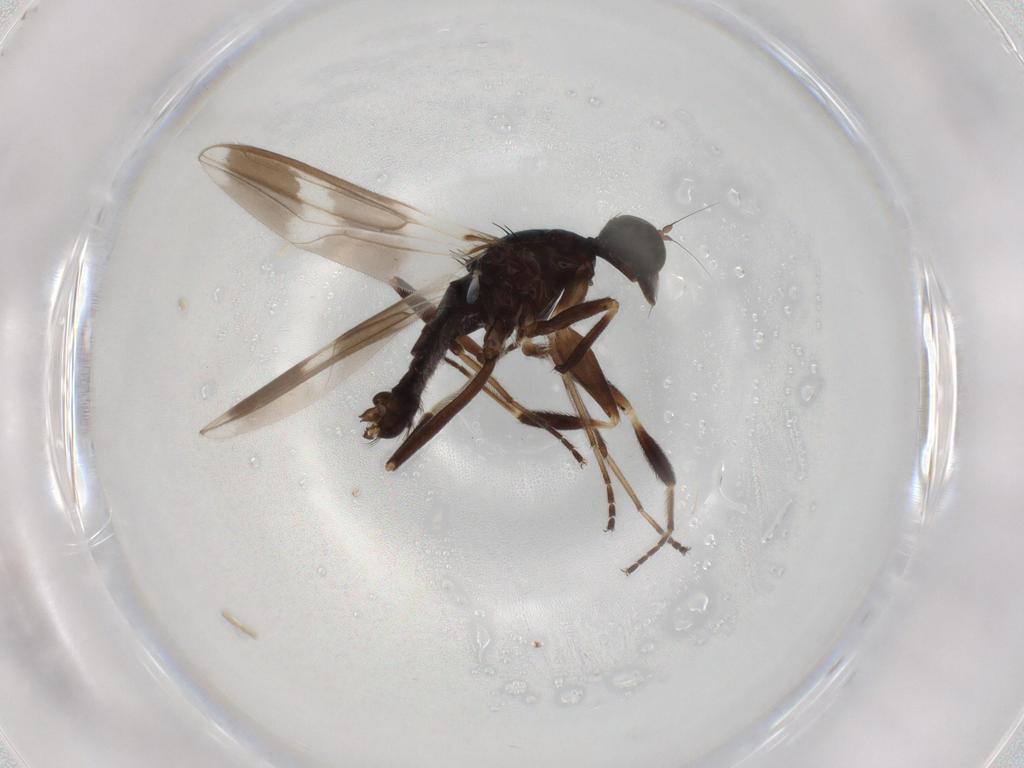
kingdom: Animalia
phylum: Arthropoda
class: Insecta
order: Diptera
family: Hybotidae
